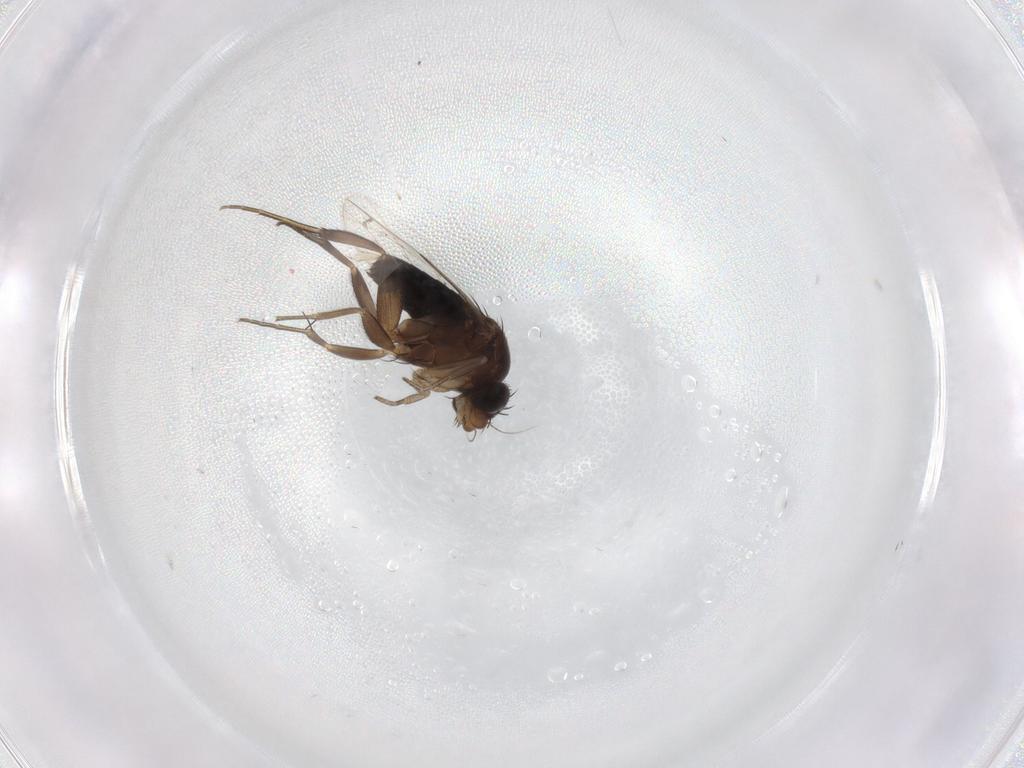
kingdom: Animalia
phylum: Arthropoda
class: Insecta
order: Diptera
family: Phoridae
